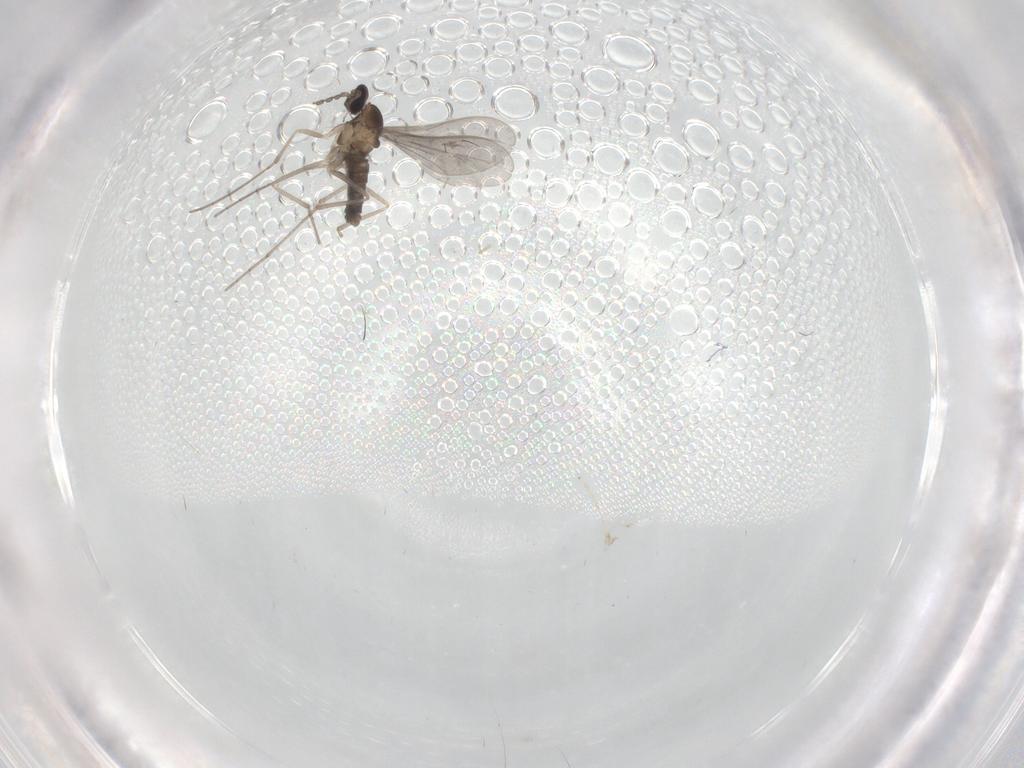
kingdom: Animalia
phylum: Arthropoda
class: Insecta
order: Diptera
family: Cecidomyiidae
